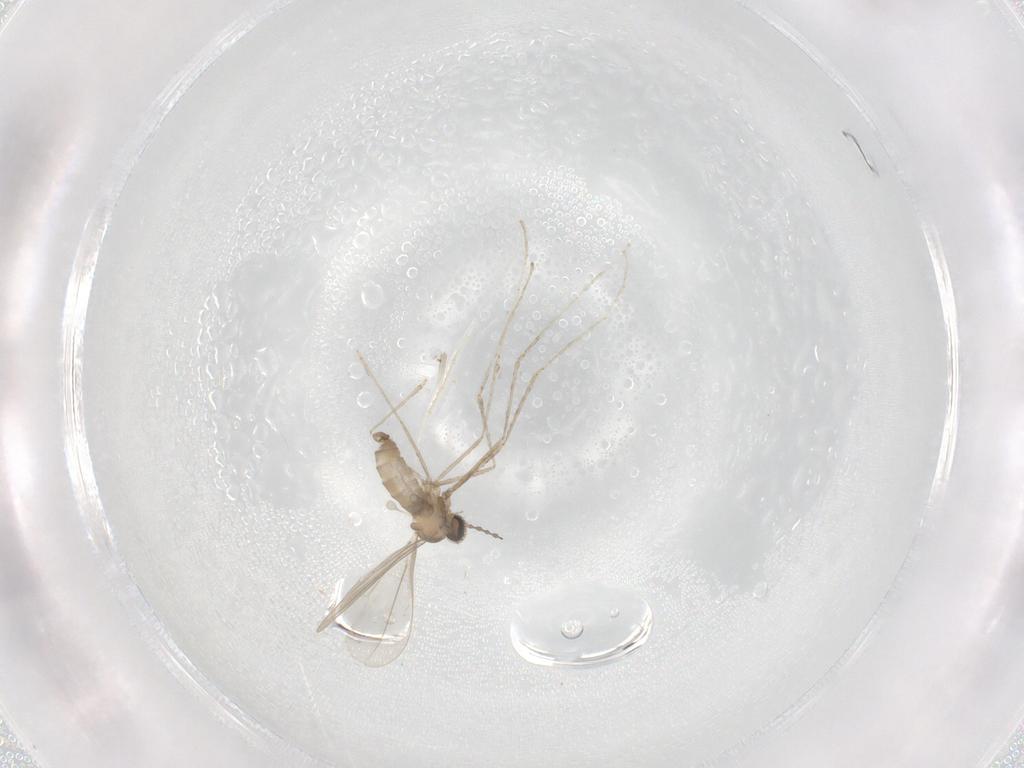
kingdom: Animalia
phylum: Arthropoda
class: Insecta
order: Diptera
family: Cecidomyiidae
